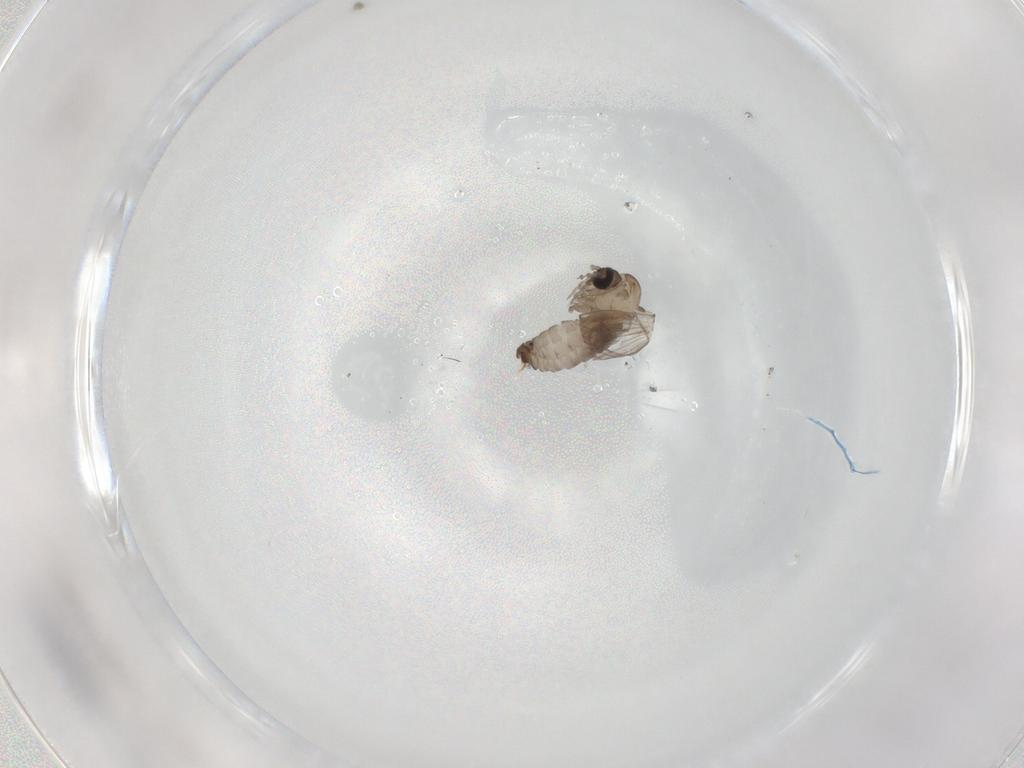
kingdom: Animalia
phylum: Arthropoda
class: Insecta
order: Diptera
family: Psychodidae
